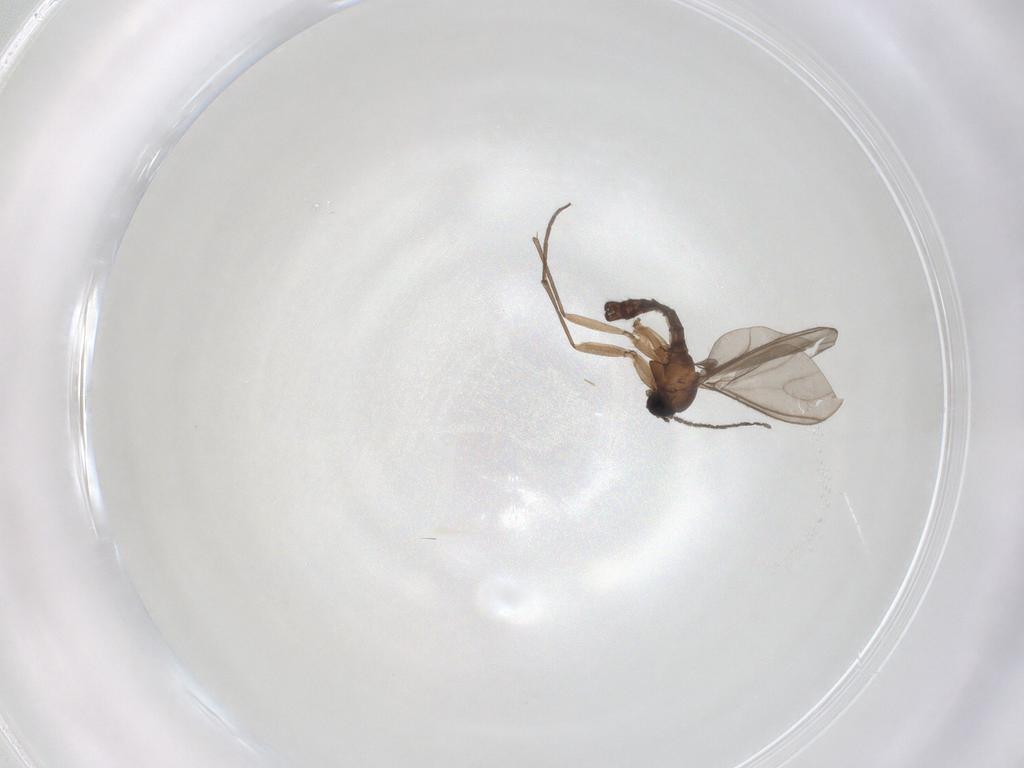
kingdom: Animalia
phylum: Arthropoda
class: Insecta
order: Diptera
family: Sciaridae
